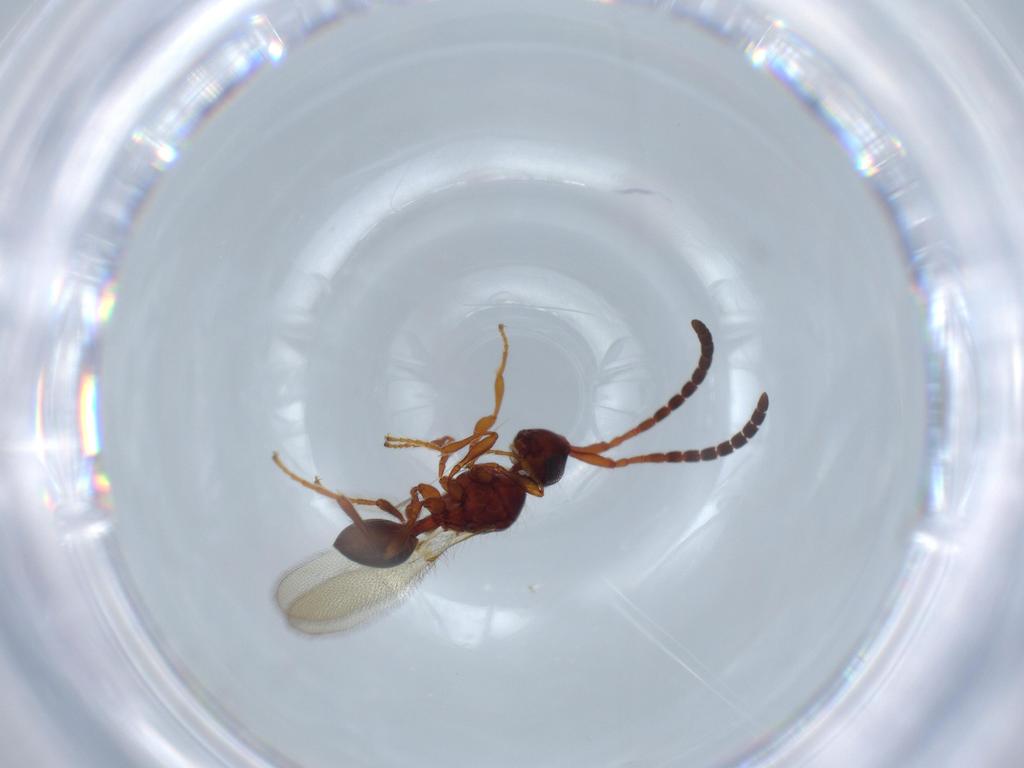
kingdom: Animalia
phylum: Arthropoda
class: Insecta
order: Hymenoptera
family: Diapriidae
